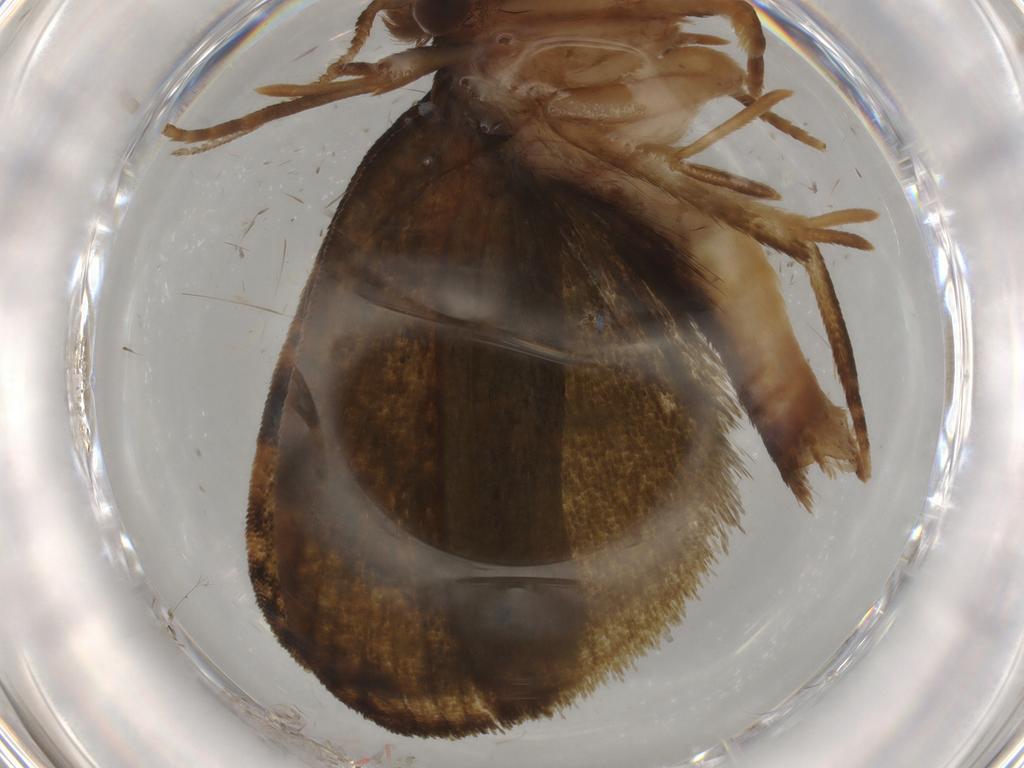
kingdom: Animalia
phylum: Arthropoda
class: Insecta
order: Lepidoptera
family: Geometridae
